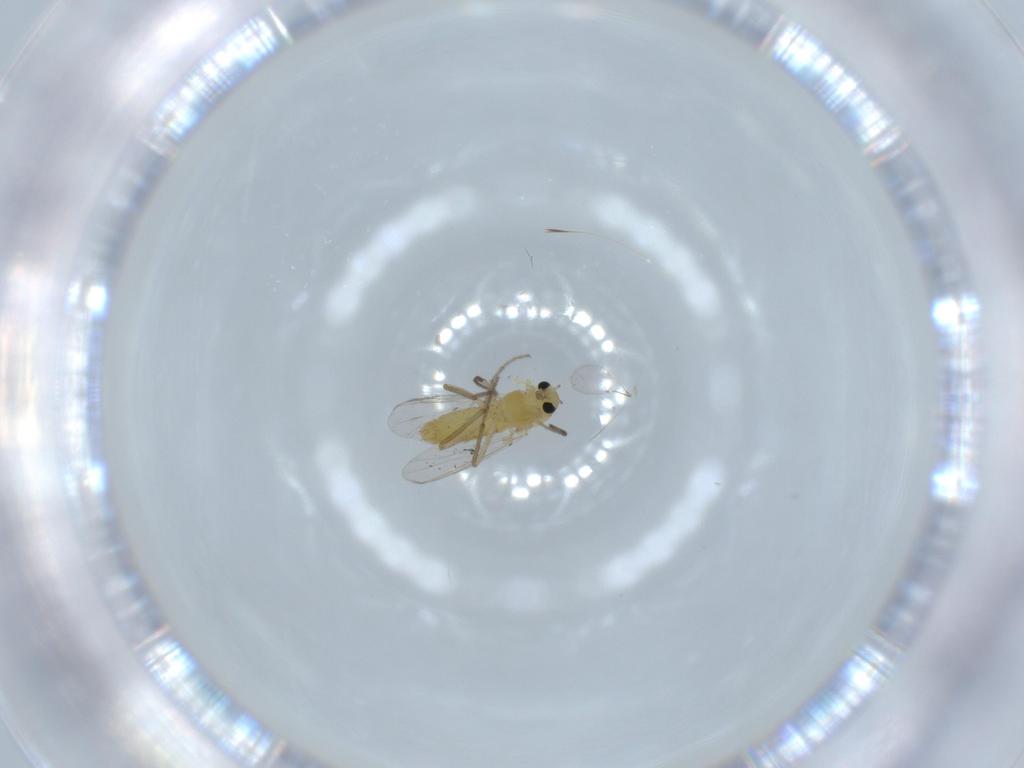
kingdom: Animalia
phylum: Arthropoda
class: Insecta
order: Diptera
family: Chironomidae
